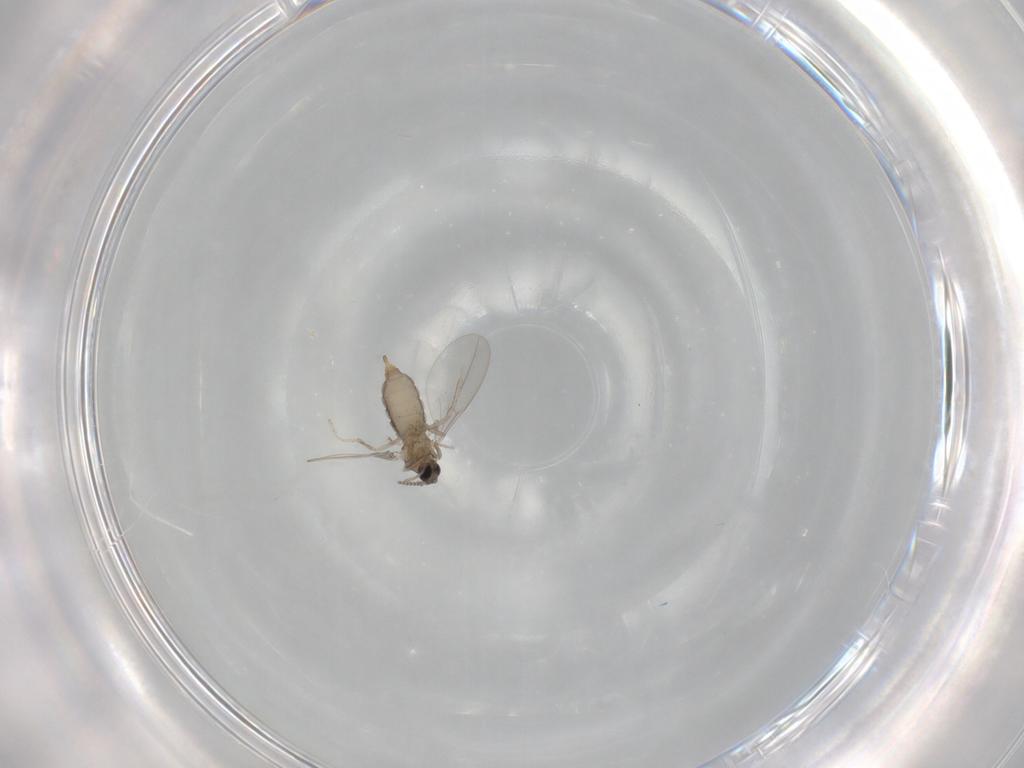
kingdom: Animalia
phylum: Arthropoda
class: Insecta
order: Diptera
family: Cecidomyiidae
